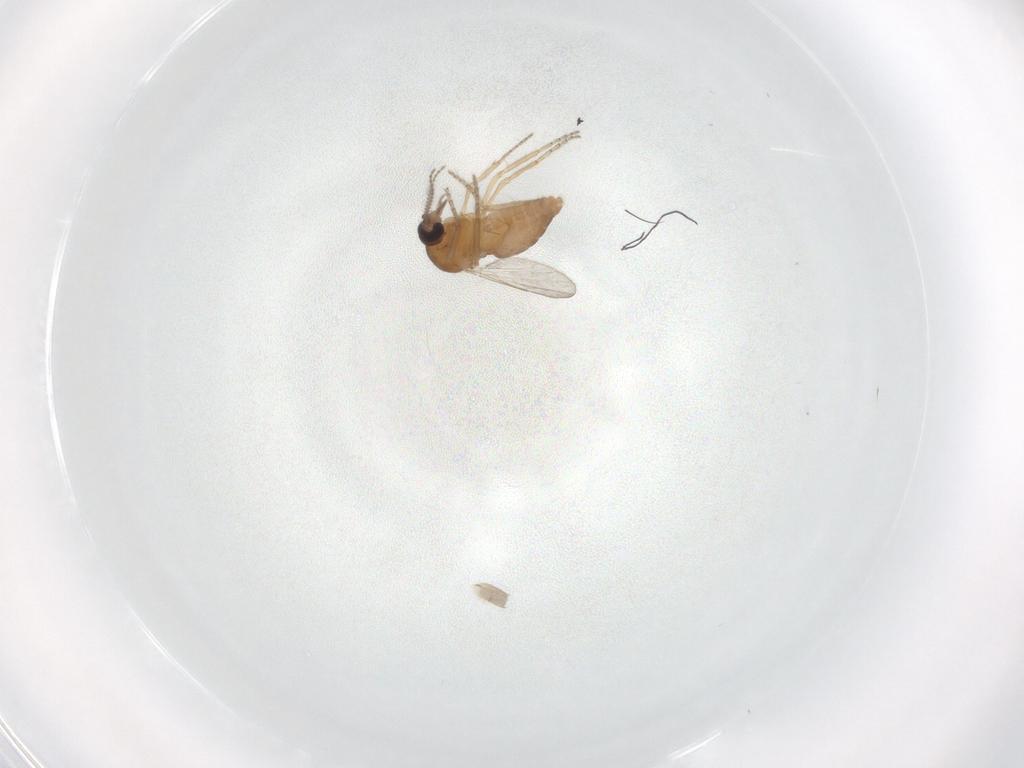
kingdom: Animalia
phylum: Arthropoda
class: Insecta
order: Diptera
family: Ceratopogonidae
